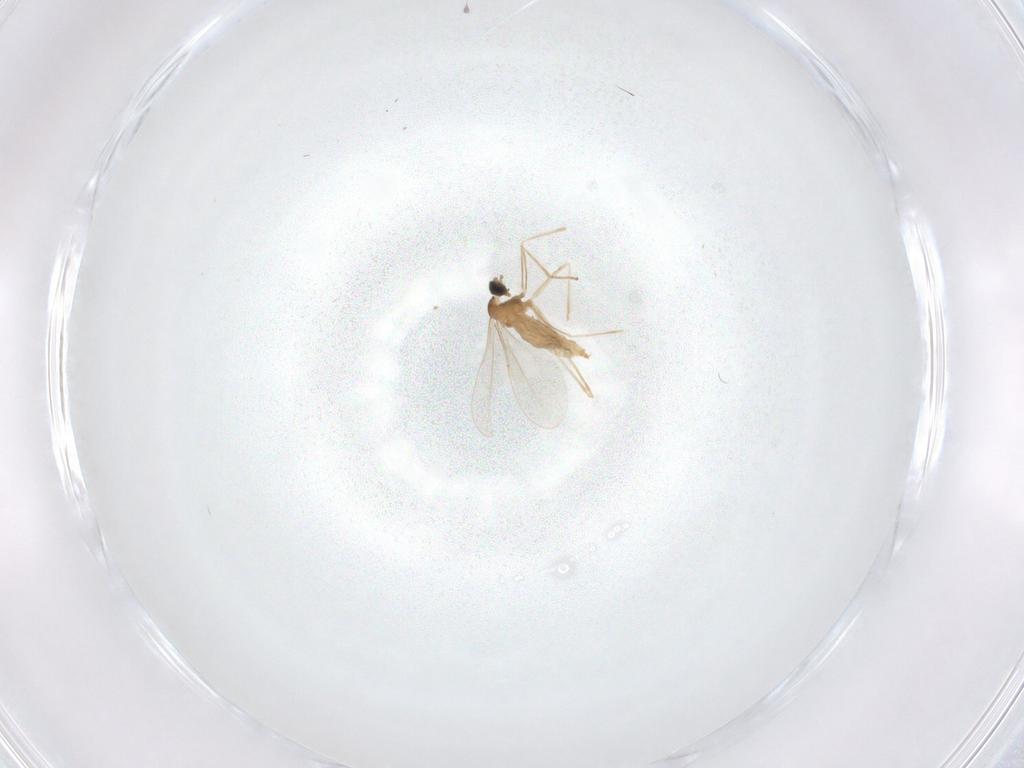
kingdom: Animalia
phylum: Arthropoda
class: Insecta
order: Diptera
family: Cecidomyiidae
